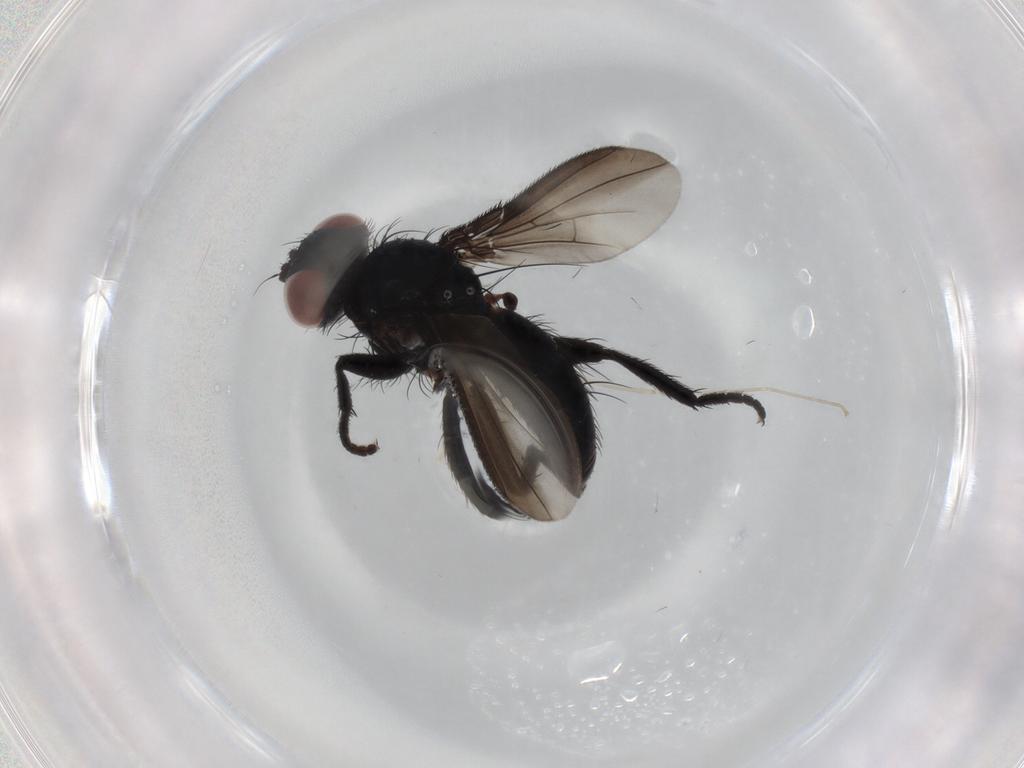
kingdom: Animalia
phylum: Arthropoda
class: Insecta
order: Diptera
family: Tachinidae
